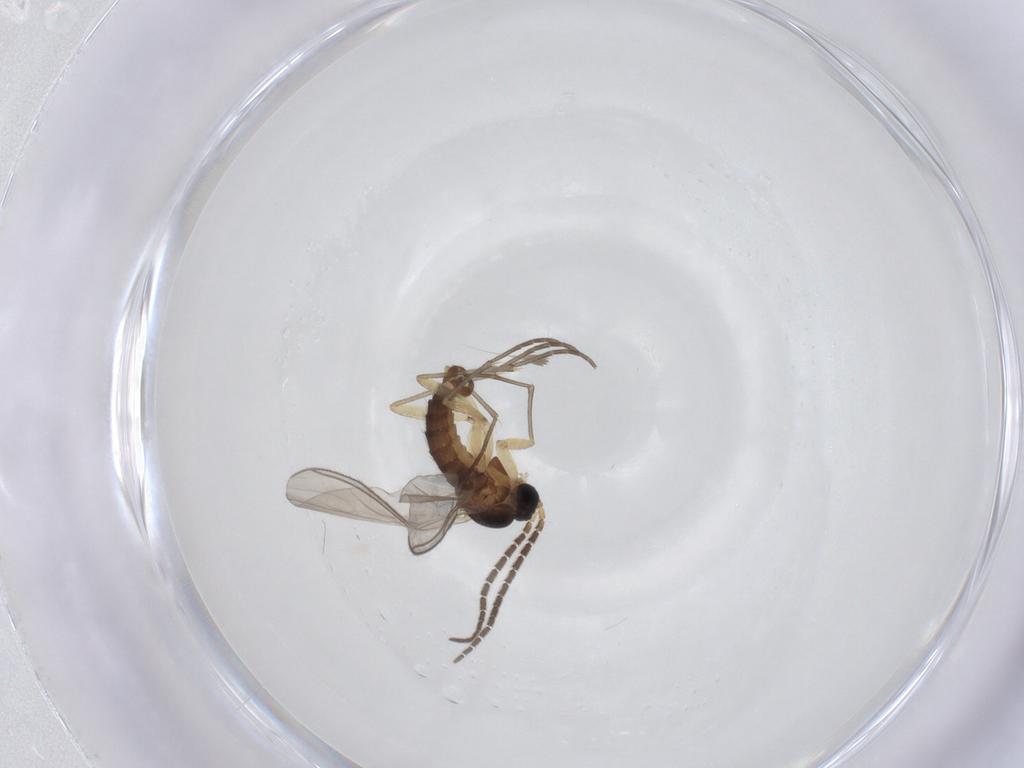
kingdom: Animalia
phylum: Arthropoda
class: Insecta
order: Diptera
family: Sciaridae
